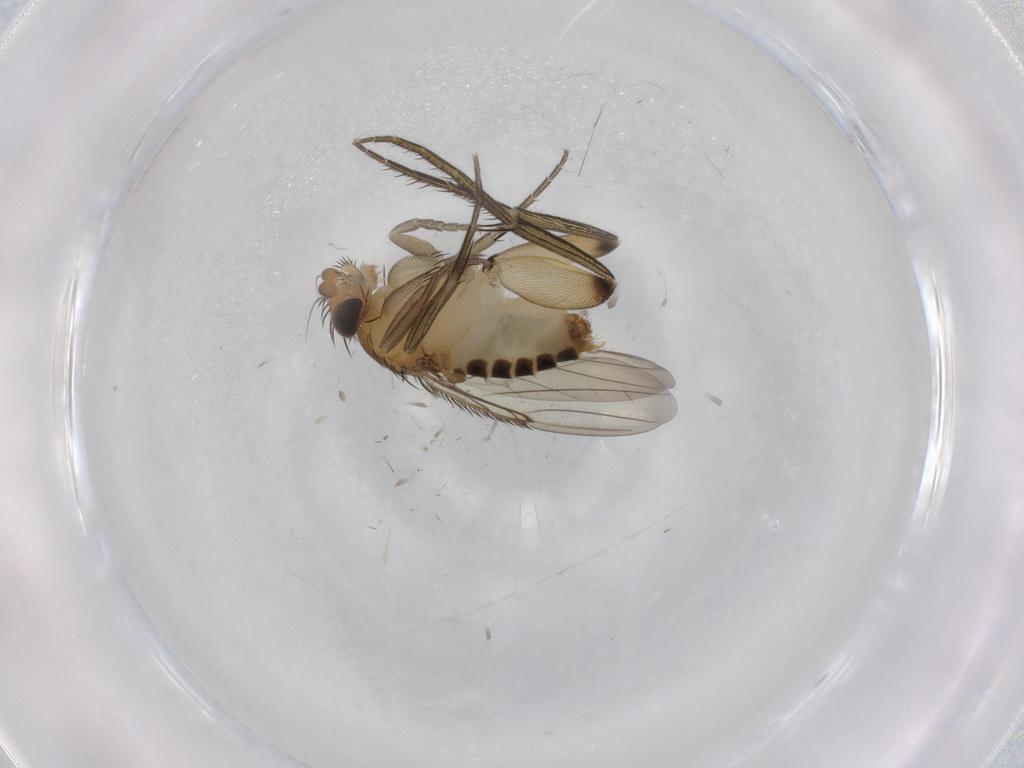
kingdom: Animalia
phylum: Arthropoda
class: Insecta
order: Diptera
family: Phoridae
